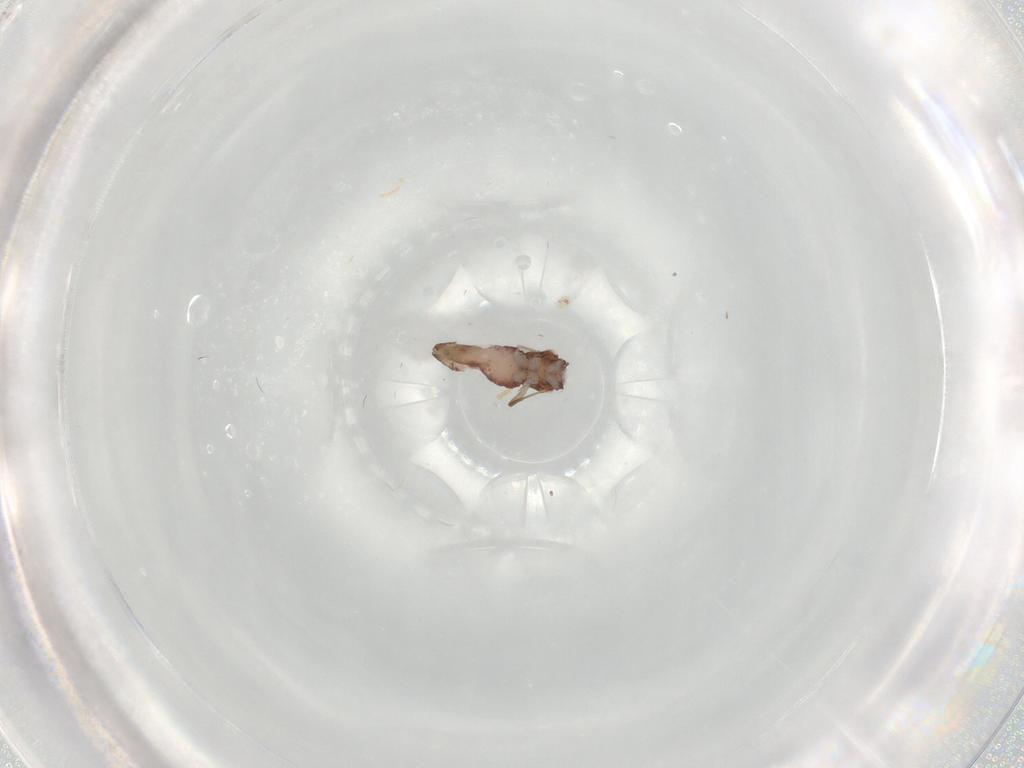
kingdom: Animalia
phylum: Arthropoda
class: Insecta
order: Psocodea
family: Lepidopsocidae
